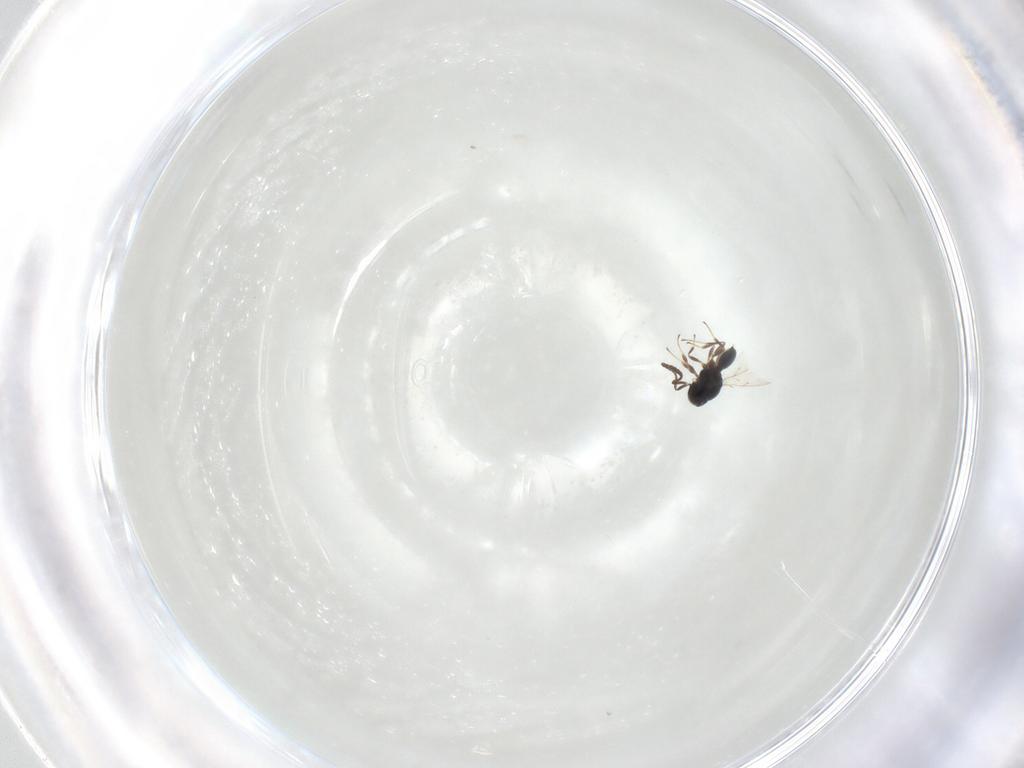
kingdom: Animalia
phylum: Arthropoda
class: Insecta
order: Hymenoptera
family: Scelionidae
